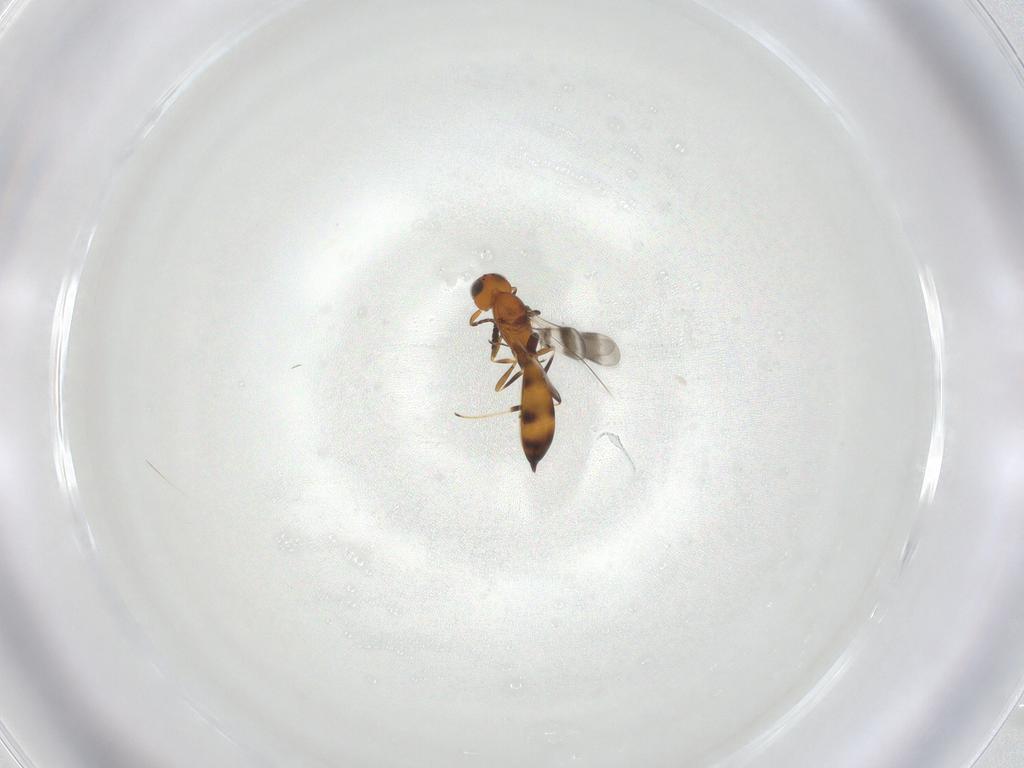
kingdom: Animalia
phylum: Arthropoda
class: Insecta
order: Hymenoptera
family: Scelionidae
